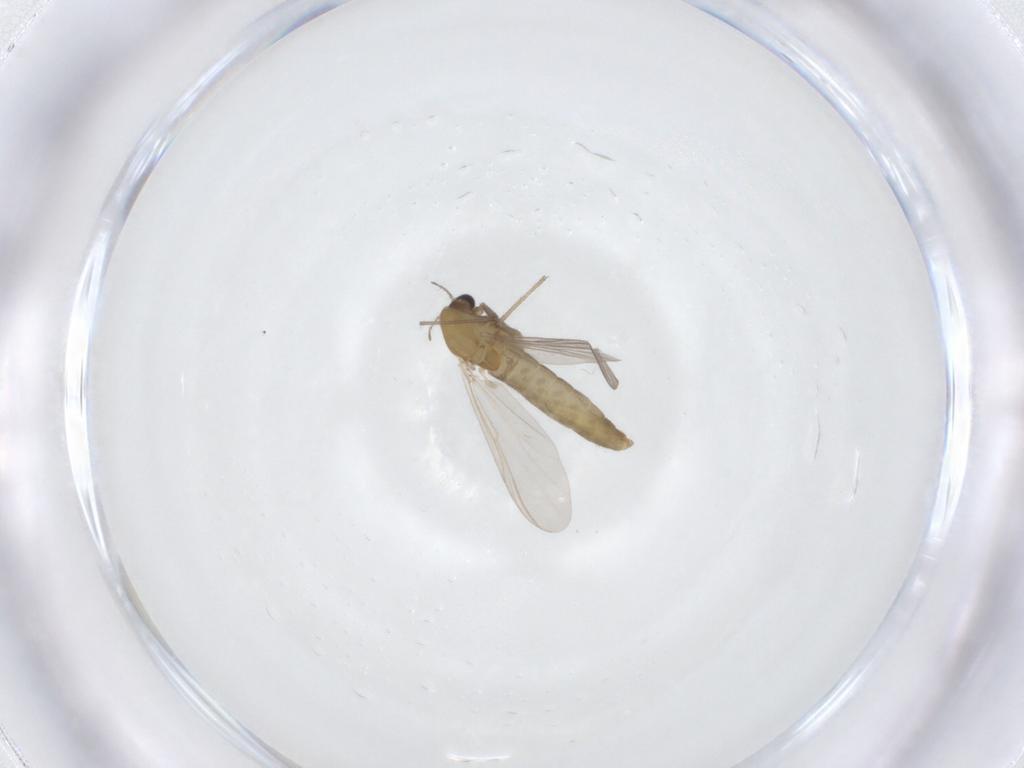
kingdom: Animalia
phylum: Arthropoda
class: Insecta
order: Diptera
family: Chironomidae
